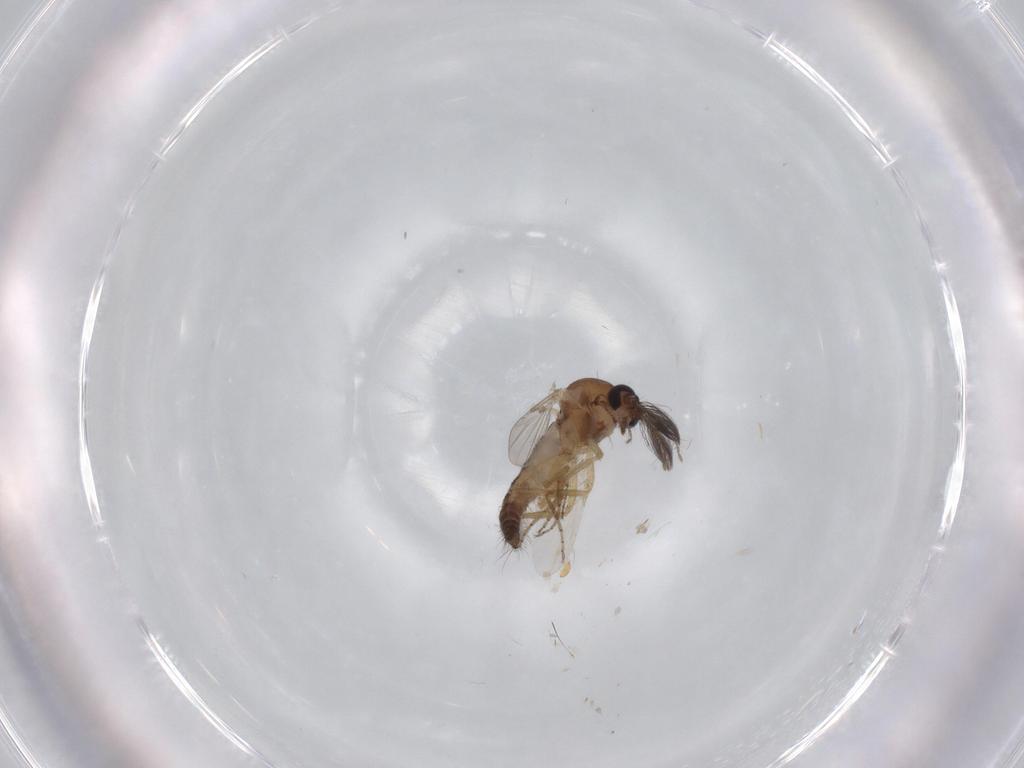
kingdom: Animalia
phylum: Arthropoda
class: Insecta
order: Diptera
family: Ceratopogonidae
